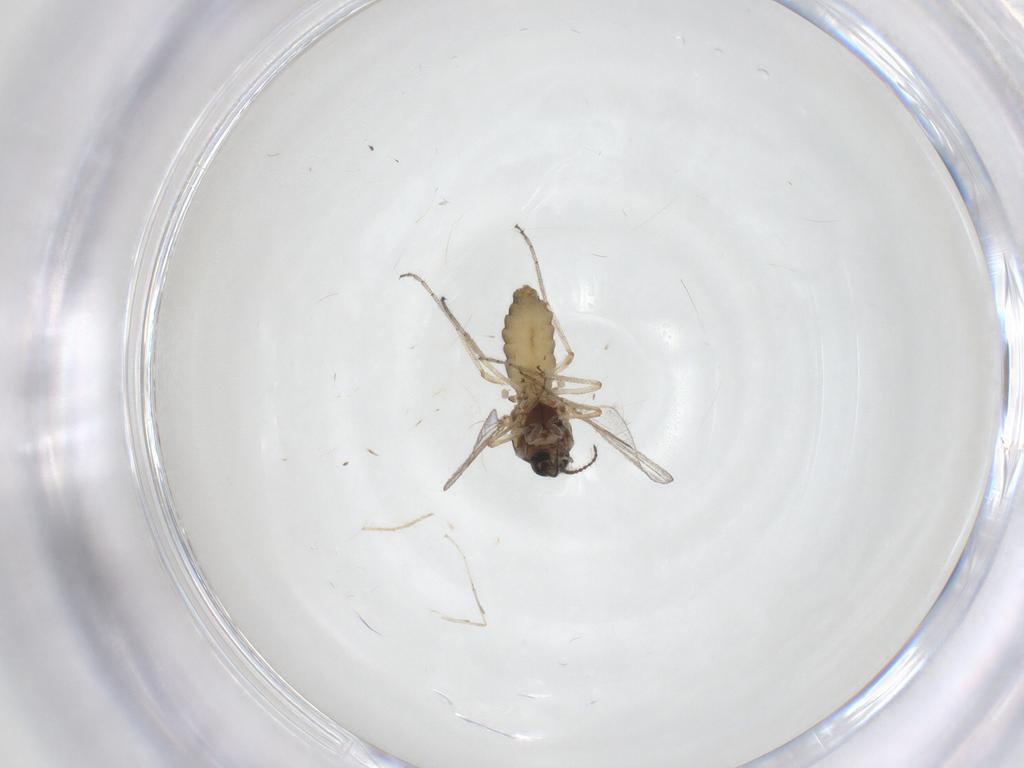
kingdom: Animalia
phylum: Arthropoda
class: Insecta
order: Diptera
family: Ceratopogonidae
